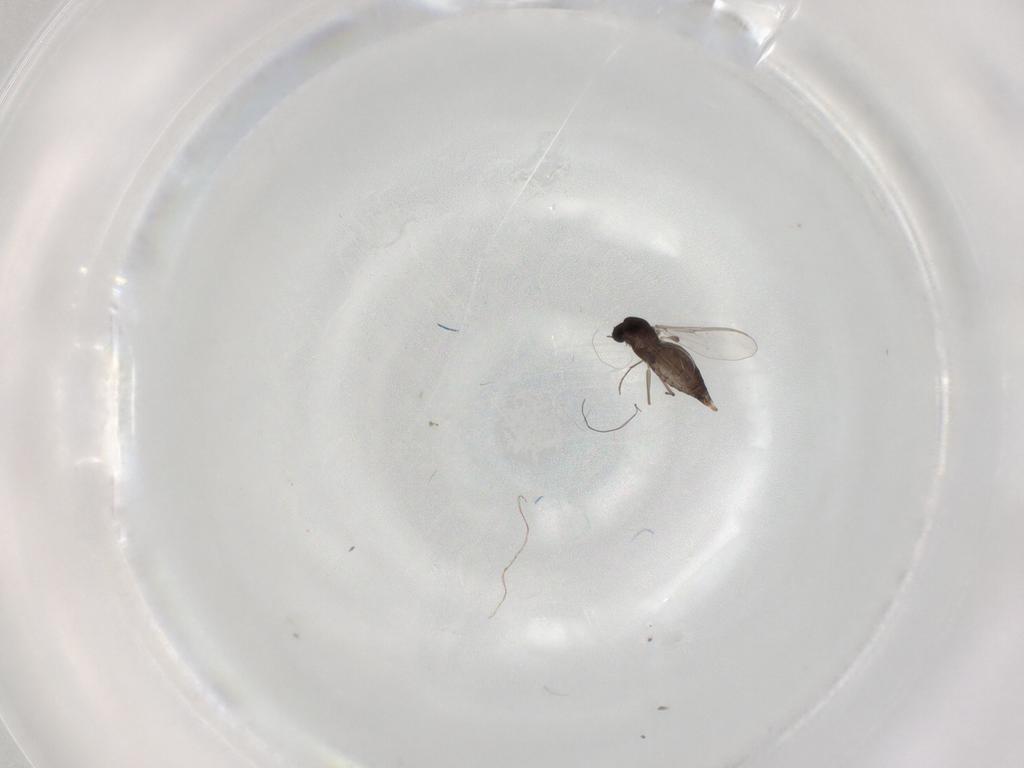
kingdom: Animalia
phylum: Arthropoda
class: Insecta
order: Diptera
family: Chironomidae
